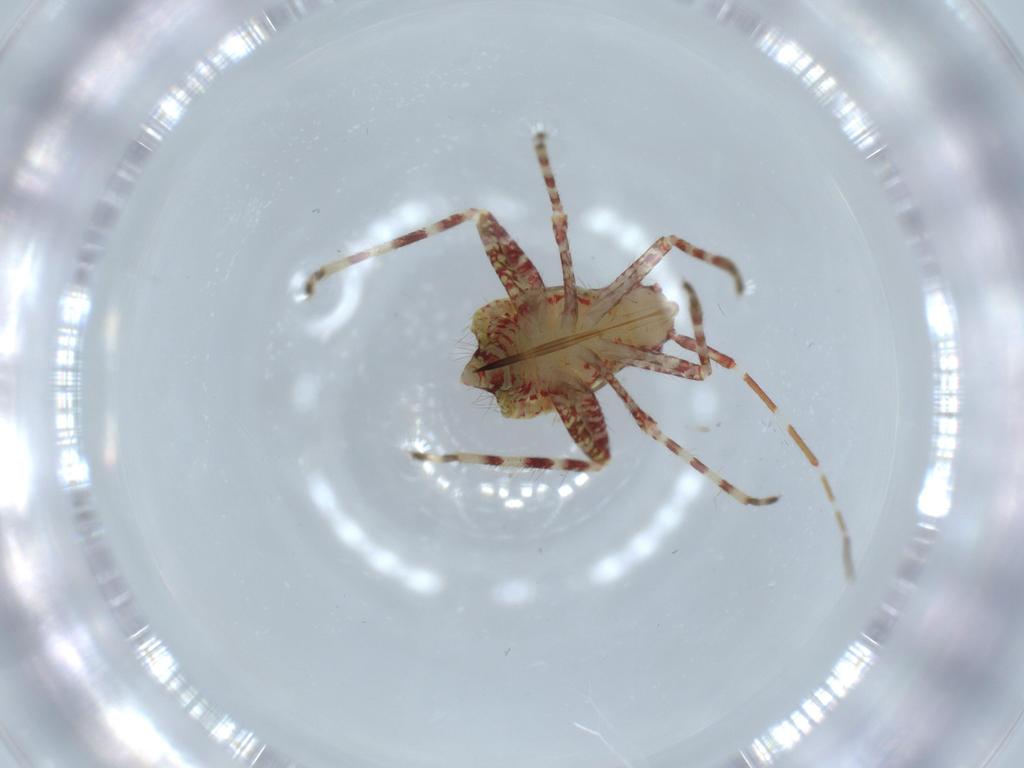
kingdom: Animalia
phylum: Arthropoda
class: Insecta
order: Hemiptera
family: Miridae
